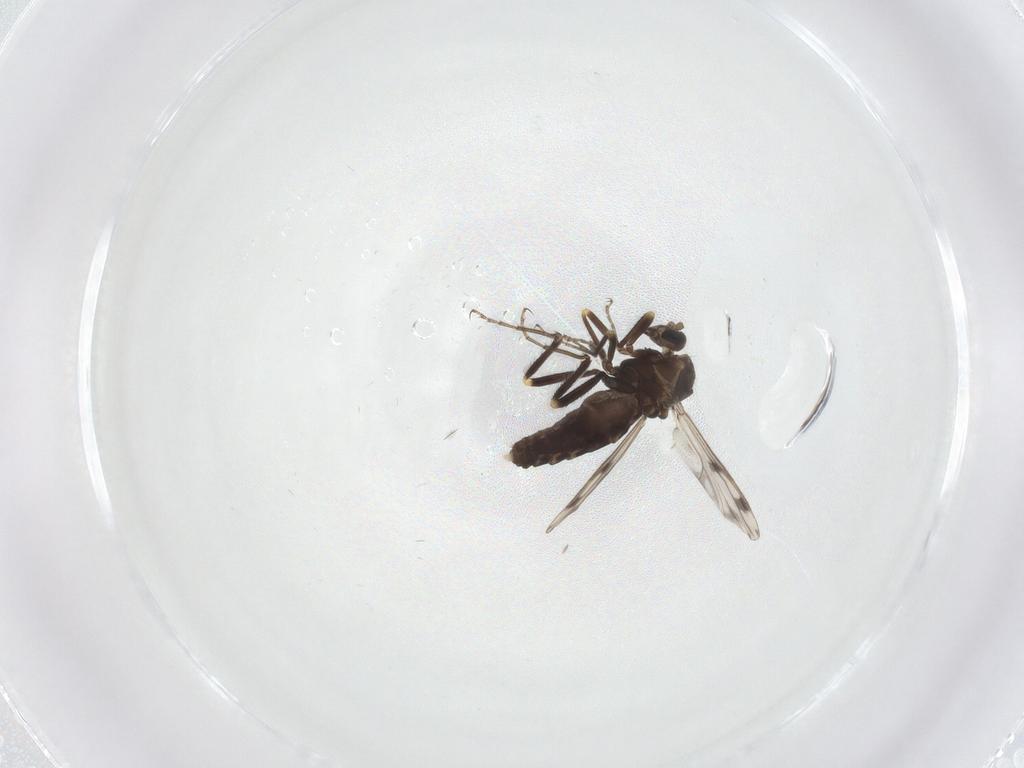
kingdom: Animalia
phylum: Arthropoda
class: Insecta
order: Diptera
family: Ceratopogonidae
